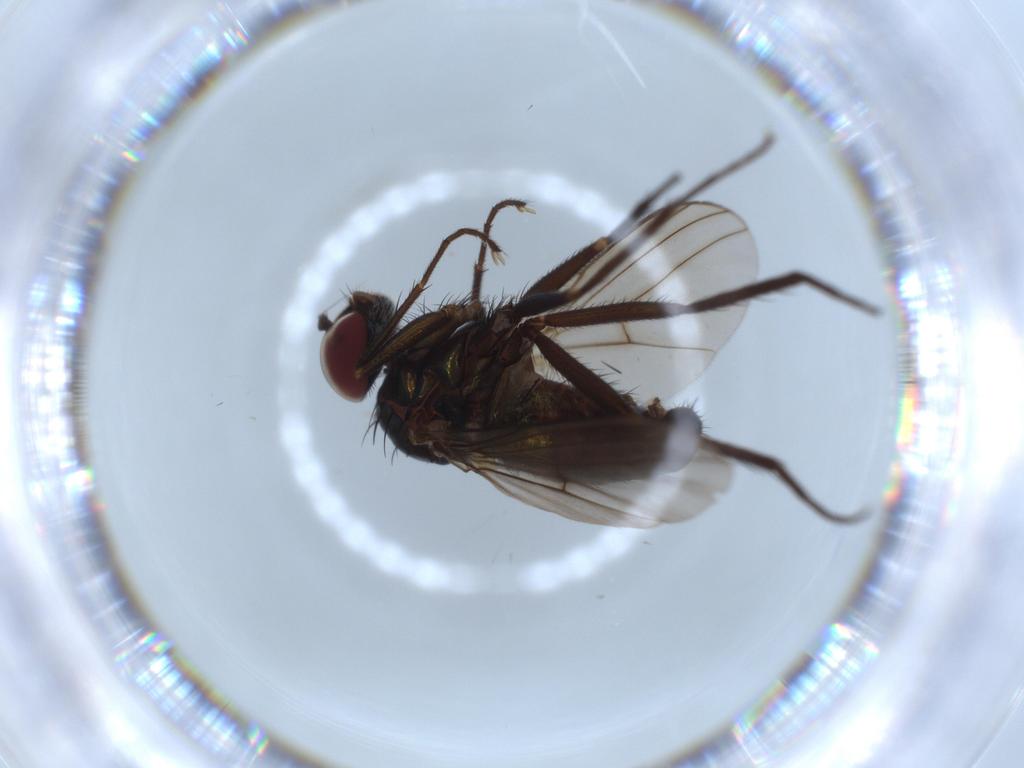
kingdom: Animalia
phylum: Arthropoda
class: Insecta
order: Diptera
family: Dolichopodidae
